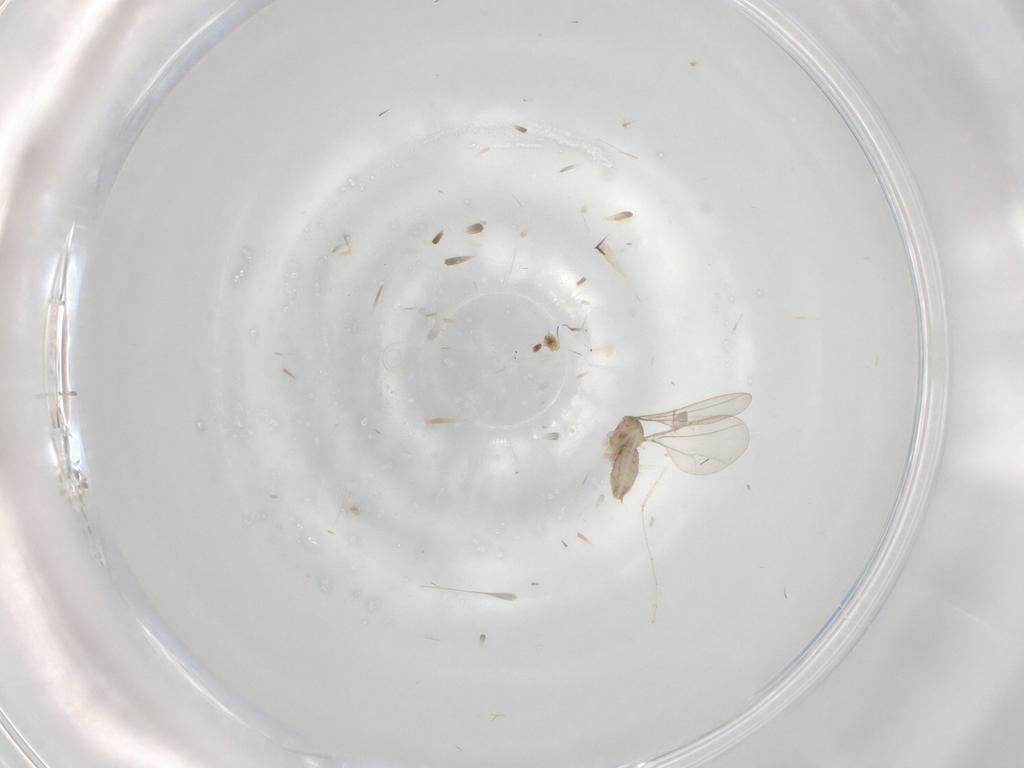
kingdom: Animalia
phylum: Arthropoda
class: Insecta
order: Diptera
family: Cecidomyiidae
